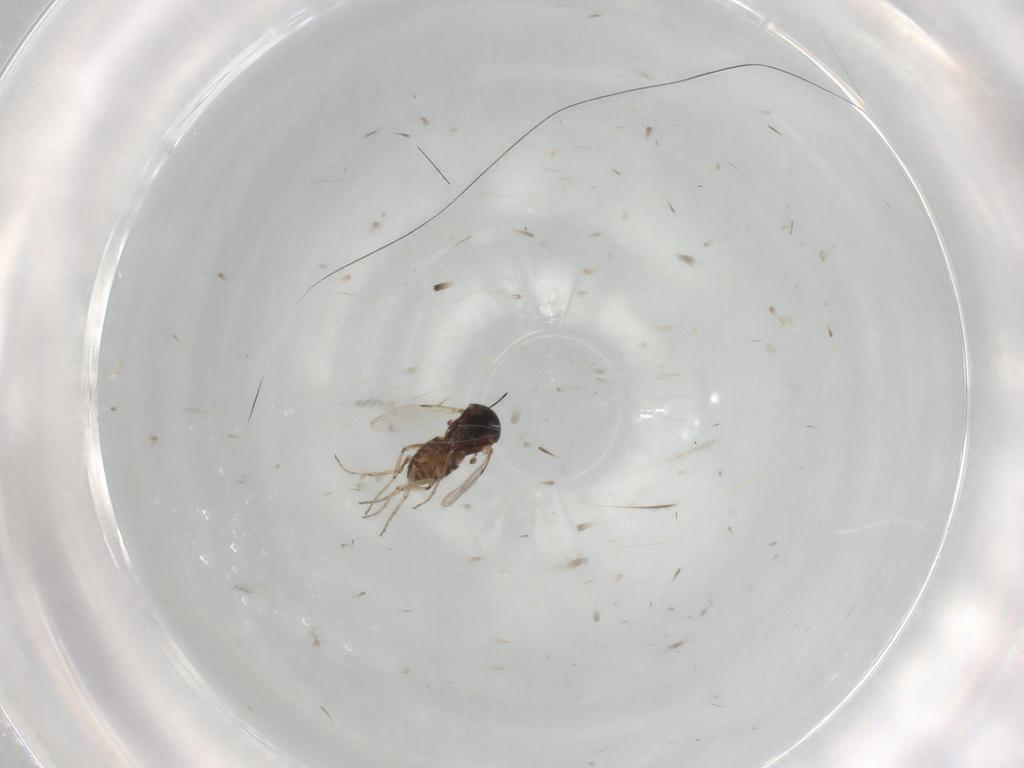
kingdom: Animalia
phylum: Arthropoda
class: Insecta
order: Diptera
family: Ceratopogonidae
